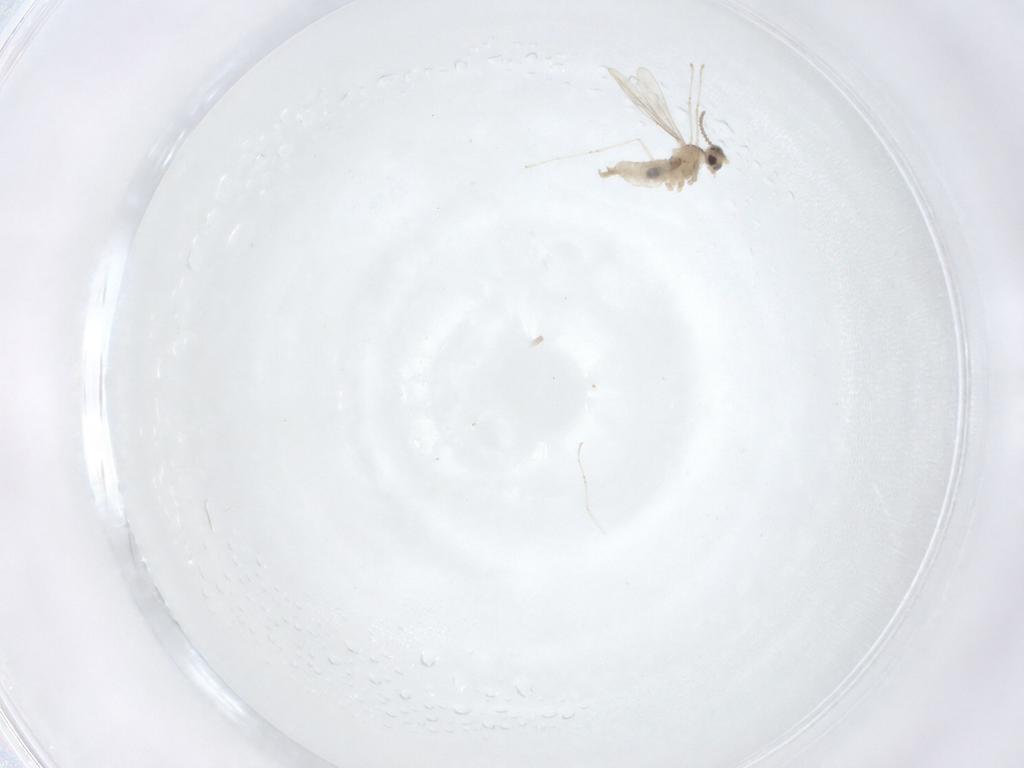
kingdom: Animalia
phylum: Arthropoda
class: Insecta
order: Diptera
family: Cecidomyiidae
